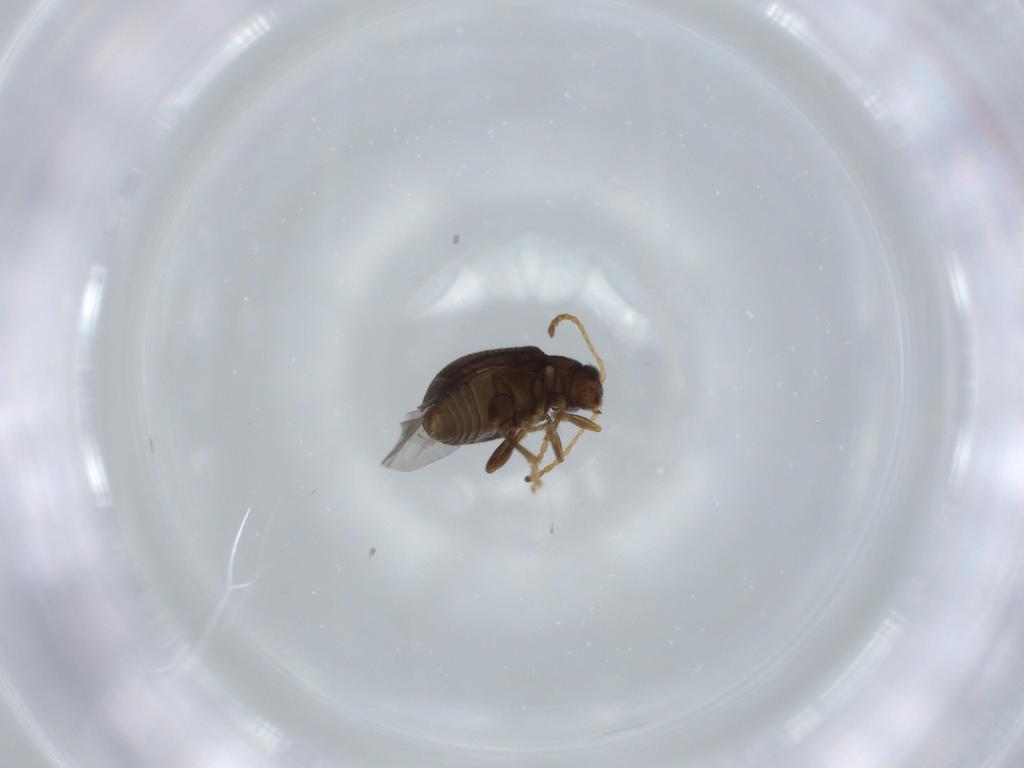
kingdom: Animalia
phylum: Arthropoda
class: Insecta
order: Coleoptera
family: Chrysomelidae
